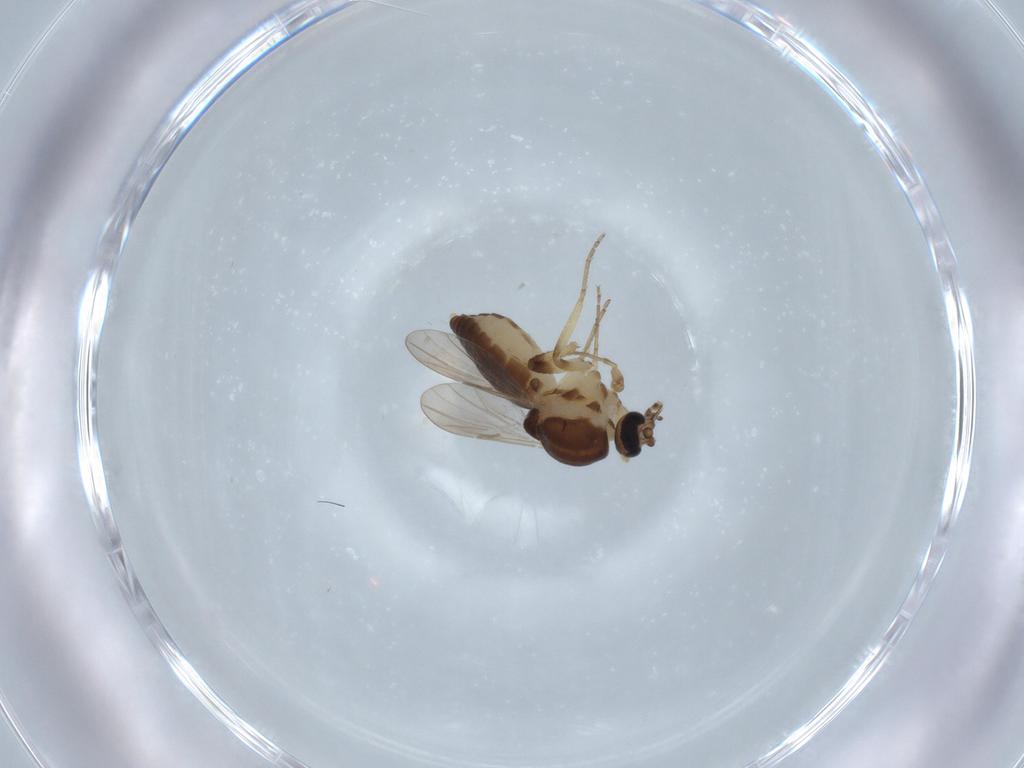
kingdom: Animalia
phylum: Arthropoda
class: Insecta
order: Diptera
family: Ceratopogonidae
